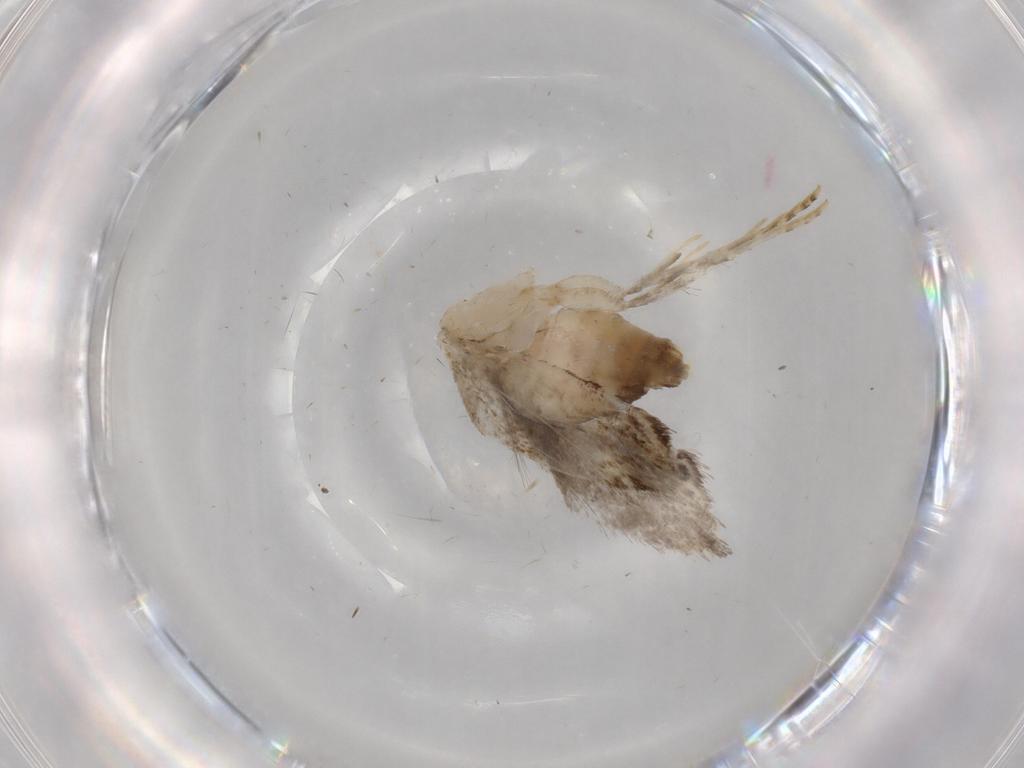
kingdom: Animalia
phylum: Arthropoda
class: Insecta
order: Lepidoptera
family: Tineidae
